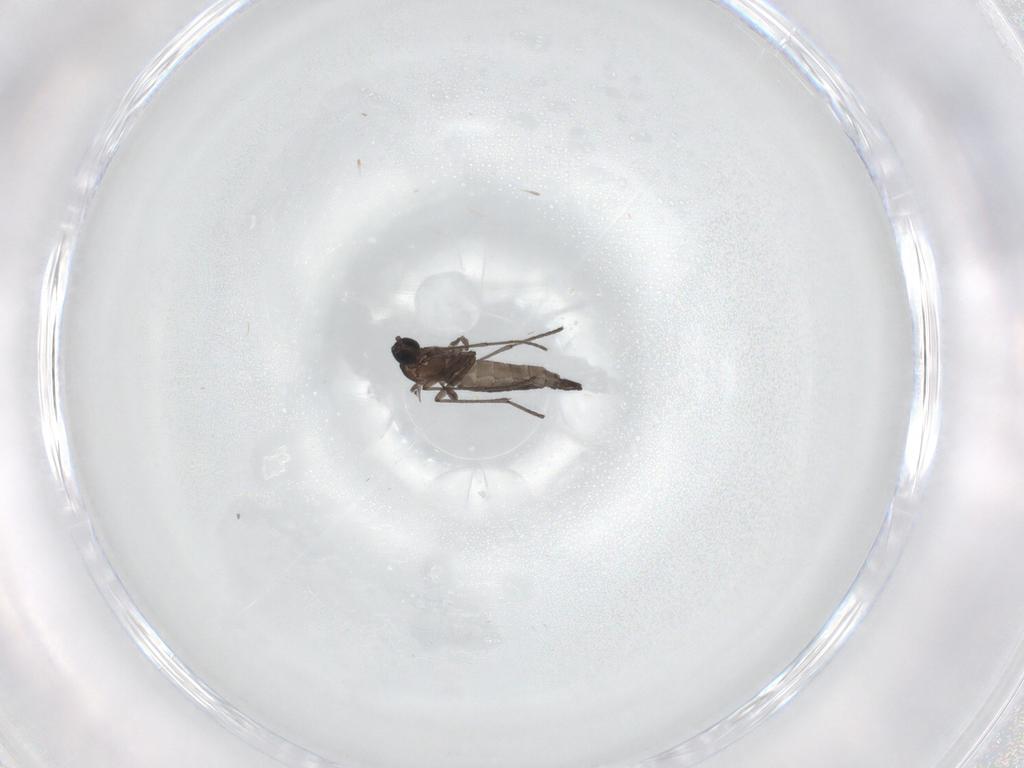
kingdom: Animalia
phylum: Arthropoda
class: Insecta
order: Diptera
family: Sciaridae
